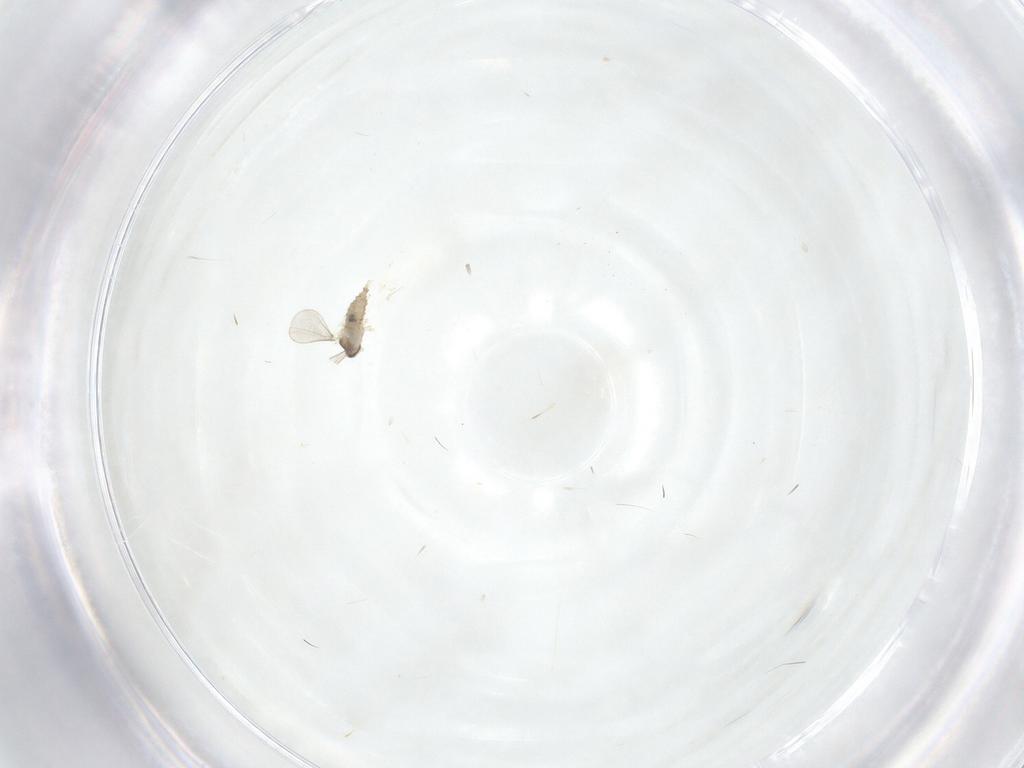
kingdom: Animalia
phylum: Arthropoda
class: Insecta
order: Diptera
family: Cecidomyiidae
